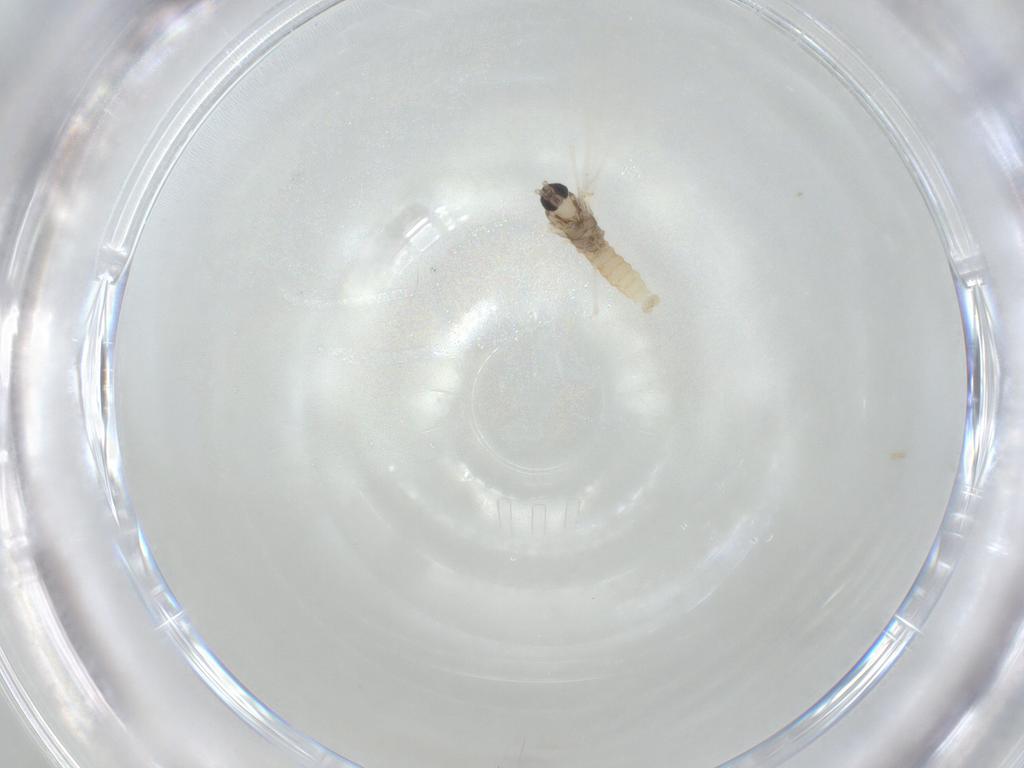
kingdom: Animalia
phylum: Arthropoda
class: Insecta
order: Diptera
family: Cecidomyiidae
